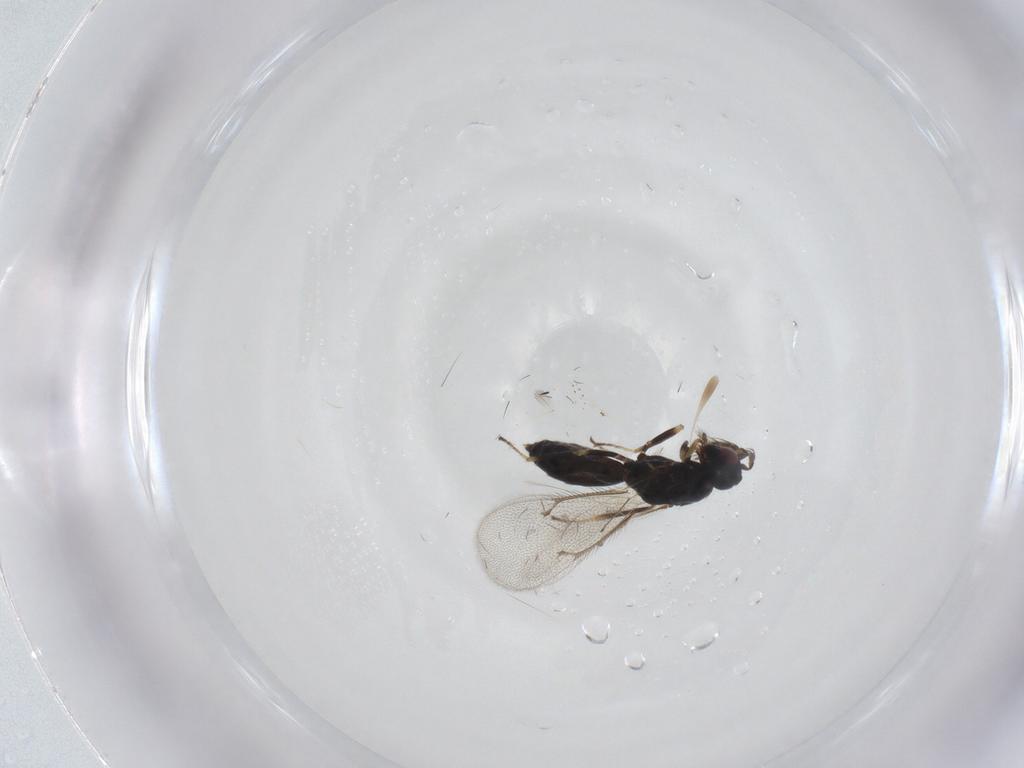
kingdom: Animalia
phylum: Arthropoda
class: Insecta
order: Hymenoptera
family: Eulophidae
